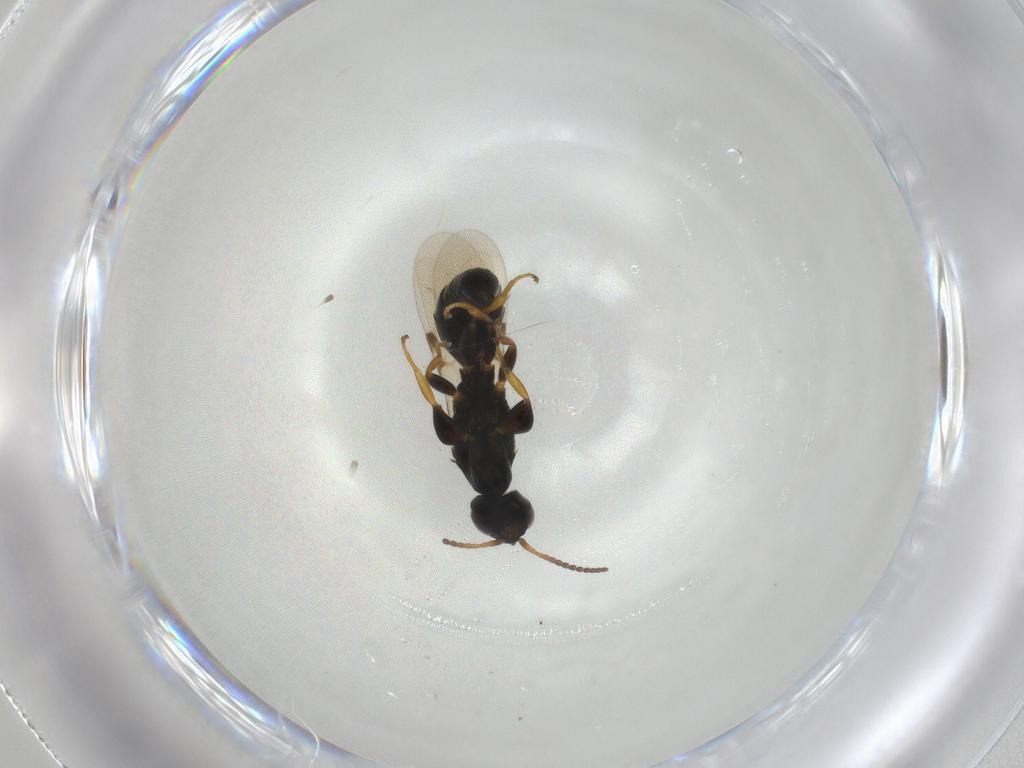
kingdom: Animalia
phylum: Arthropoda
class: Insecta
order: Hymenoptera
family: Bethylidae
